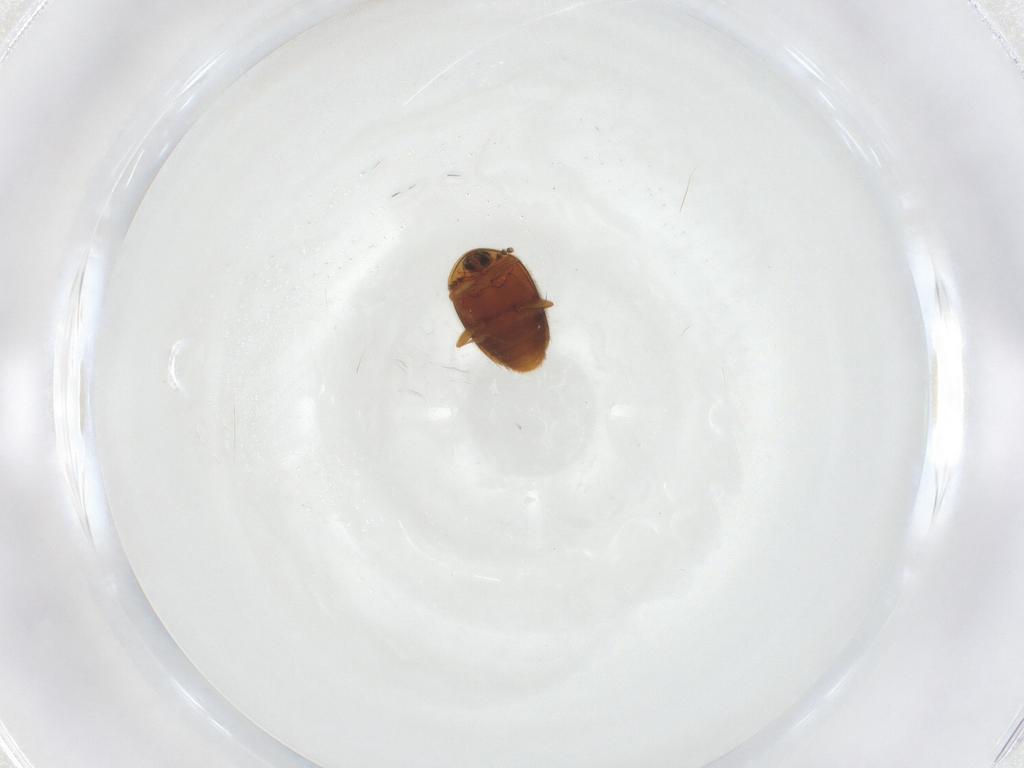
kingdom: Animalia
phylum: Arthropoda
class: Insecta
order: Coleoptera
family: Corylophidae
